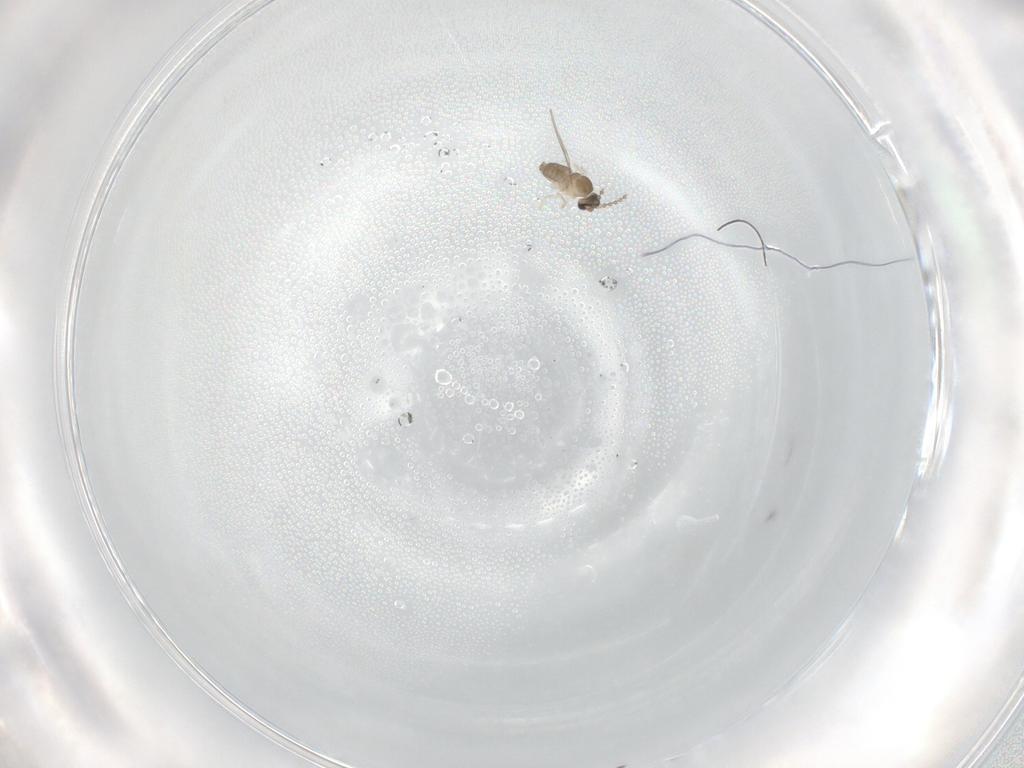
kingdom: Animalia
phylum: Arthropoda
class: Insecta
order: Diptera
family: Cecidomyiidae
